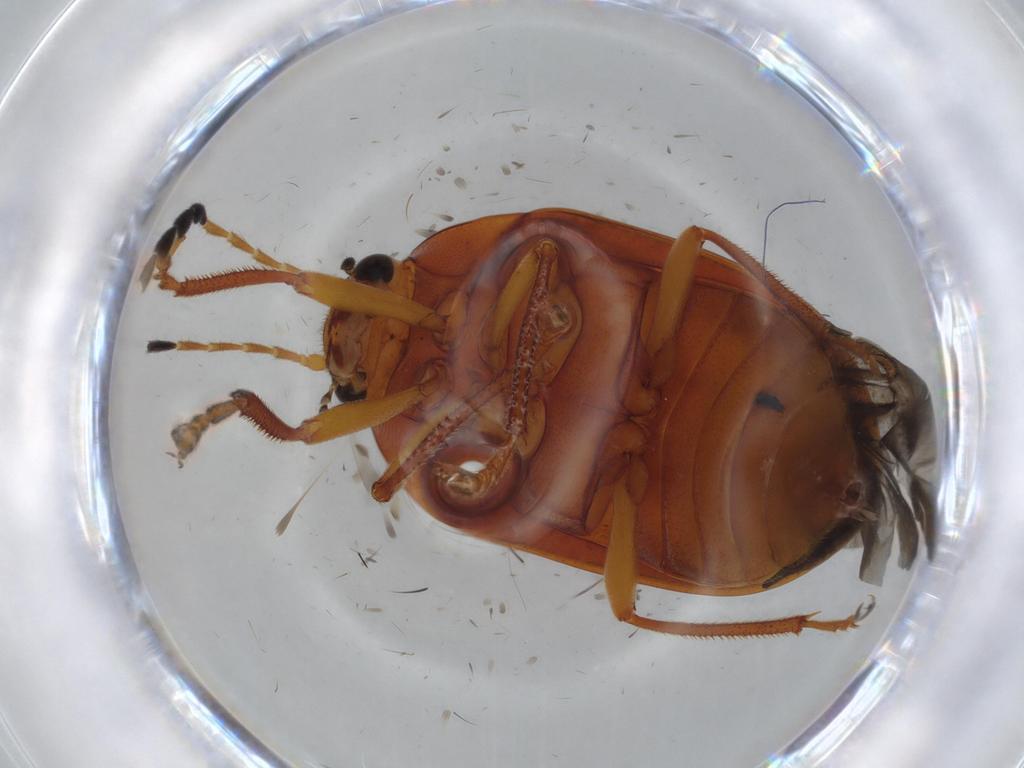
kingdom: Animalia
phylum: Arthropoda
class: Insecta
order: Coleoptera
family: Ptilodactylidae
